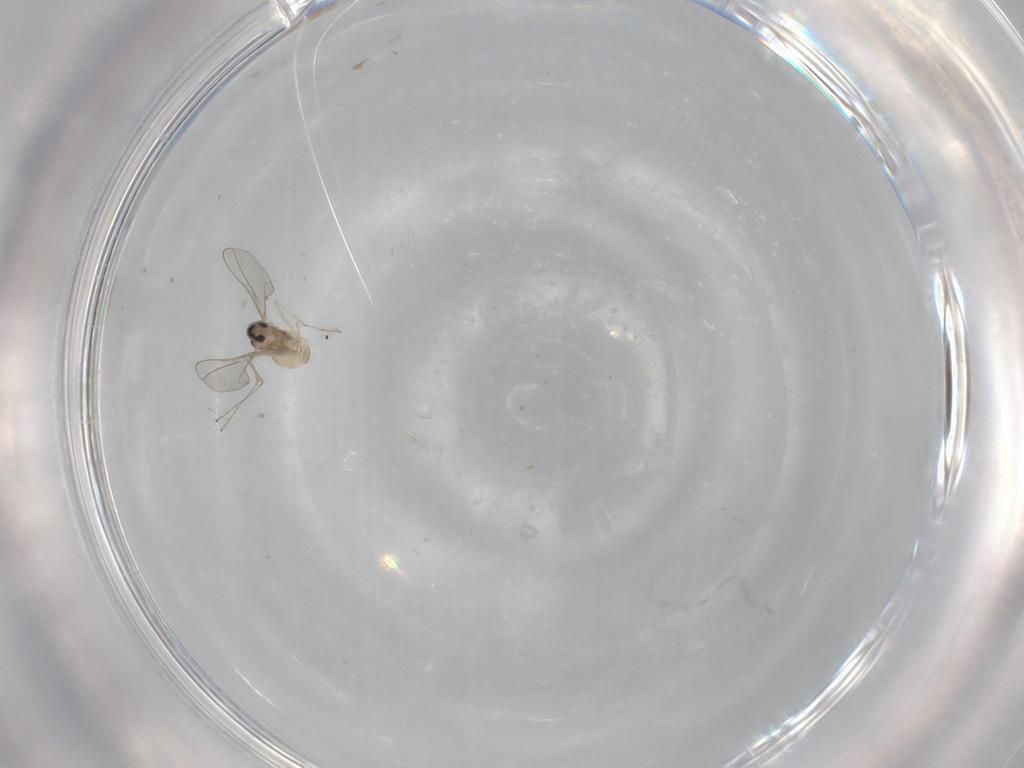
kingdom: Animalia
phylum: Arthropoda
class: Insecta
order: Diptera
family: Cecidomyiidae
